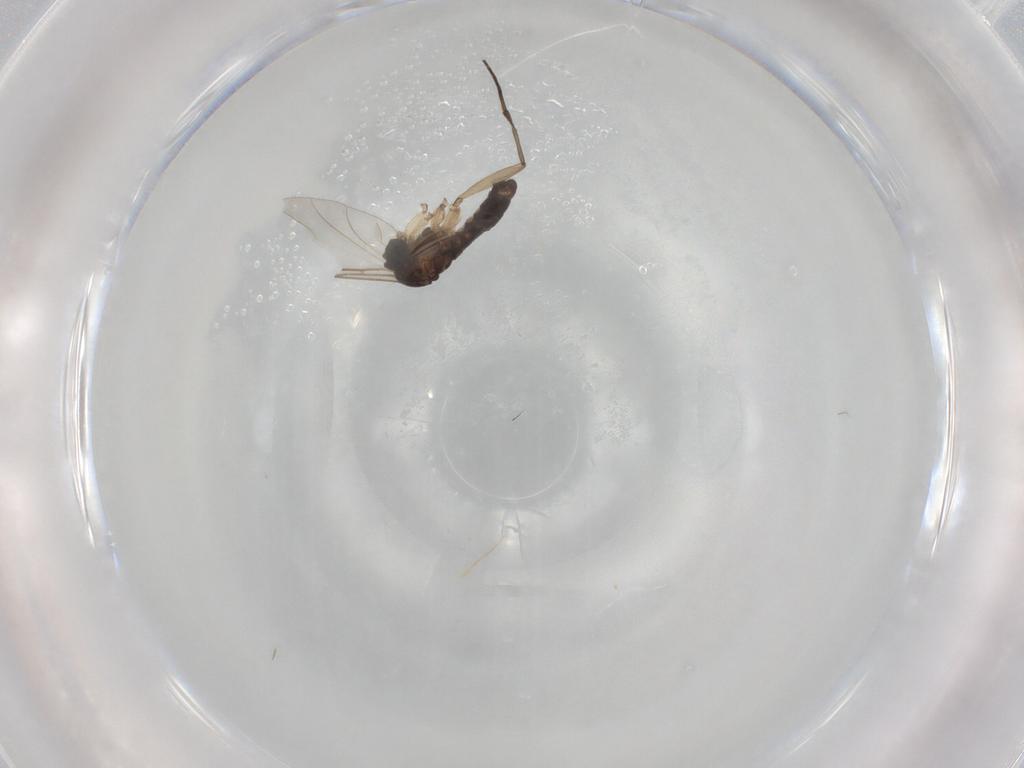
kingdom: Animalia
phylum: Arthropoda
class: Insecta
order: Diptera
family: Sciaridae
